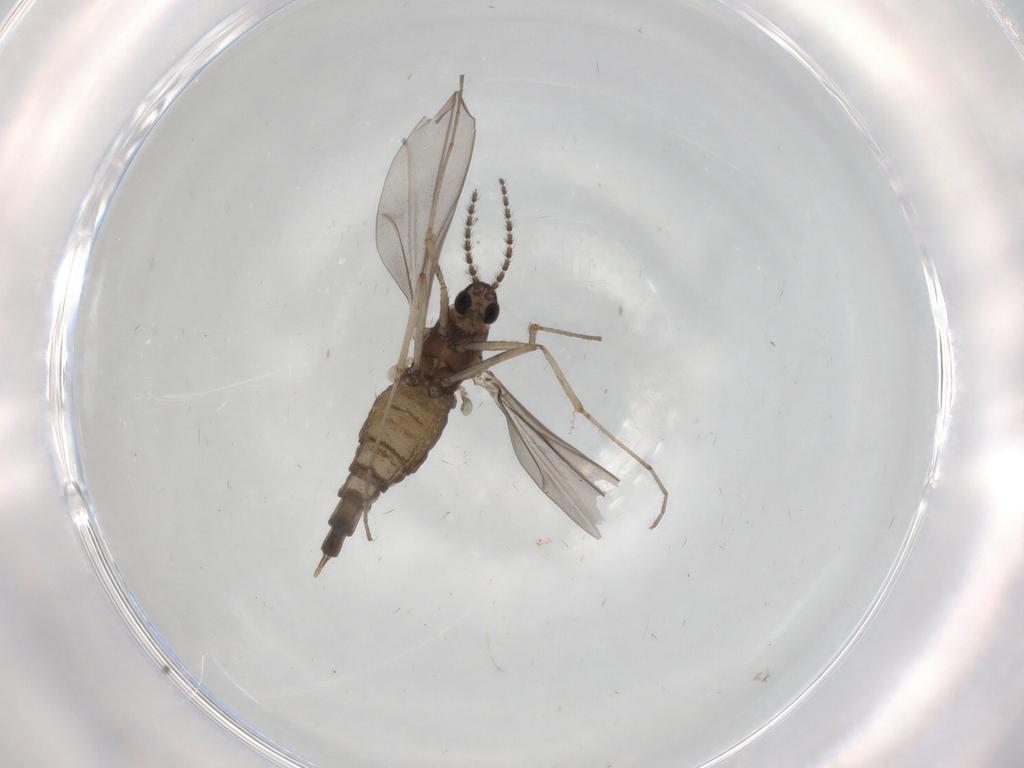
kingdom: Animalia
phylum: Arthropoda
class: Insecta
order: Diptera
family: Cecidomyiidae
